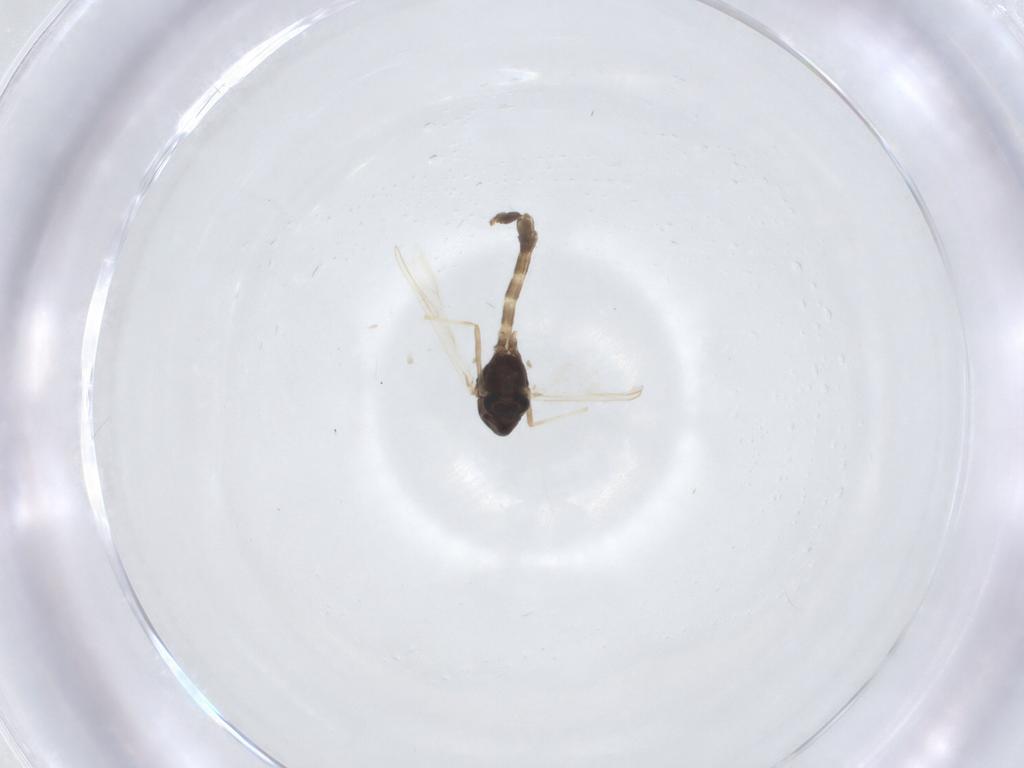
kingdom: Animalia
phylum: Arthropoda
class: Insecta
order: Diptera
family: Chironomidae
